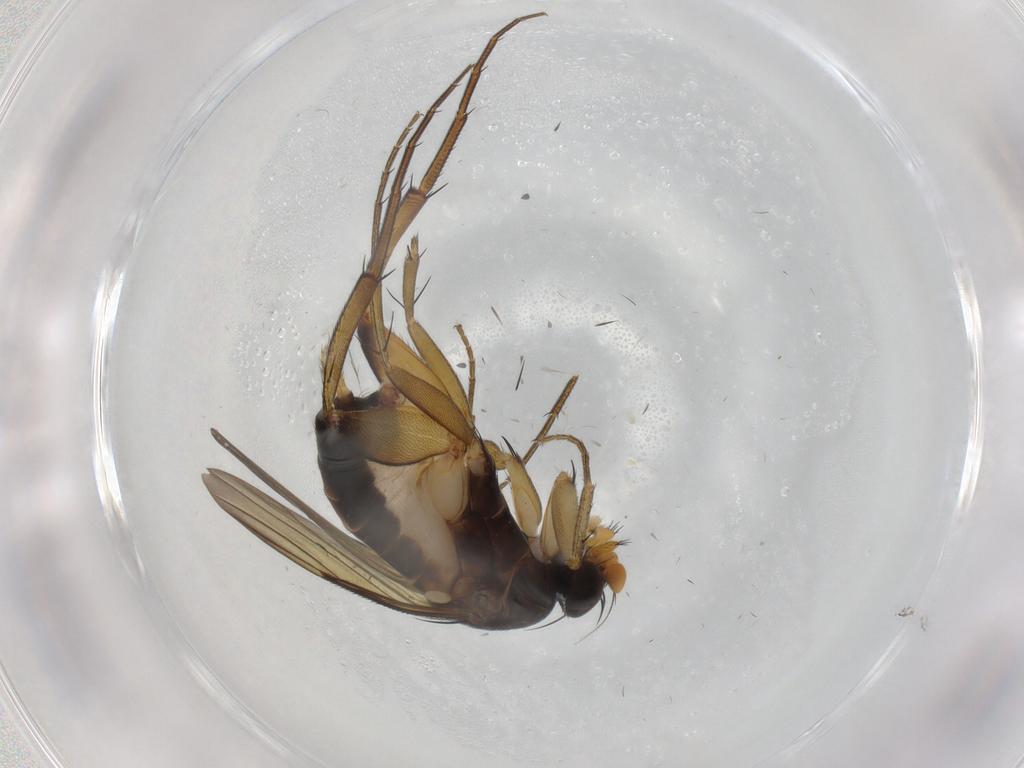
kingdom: Animalia
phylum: Arthropoda
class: Insecta
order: Diptera
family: Phoridae
